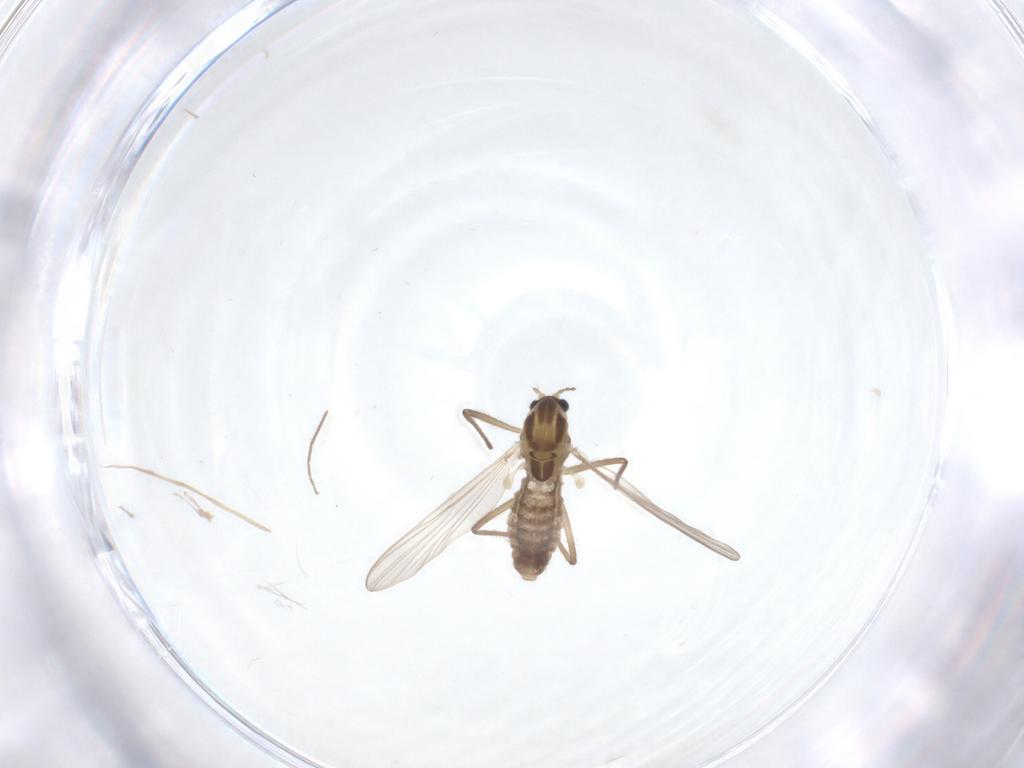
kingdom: Animalia
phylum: Arthropoda
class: Insecta
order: Diptera
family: Chironomidae
